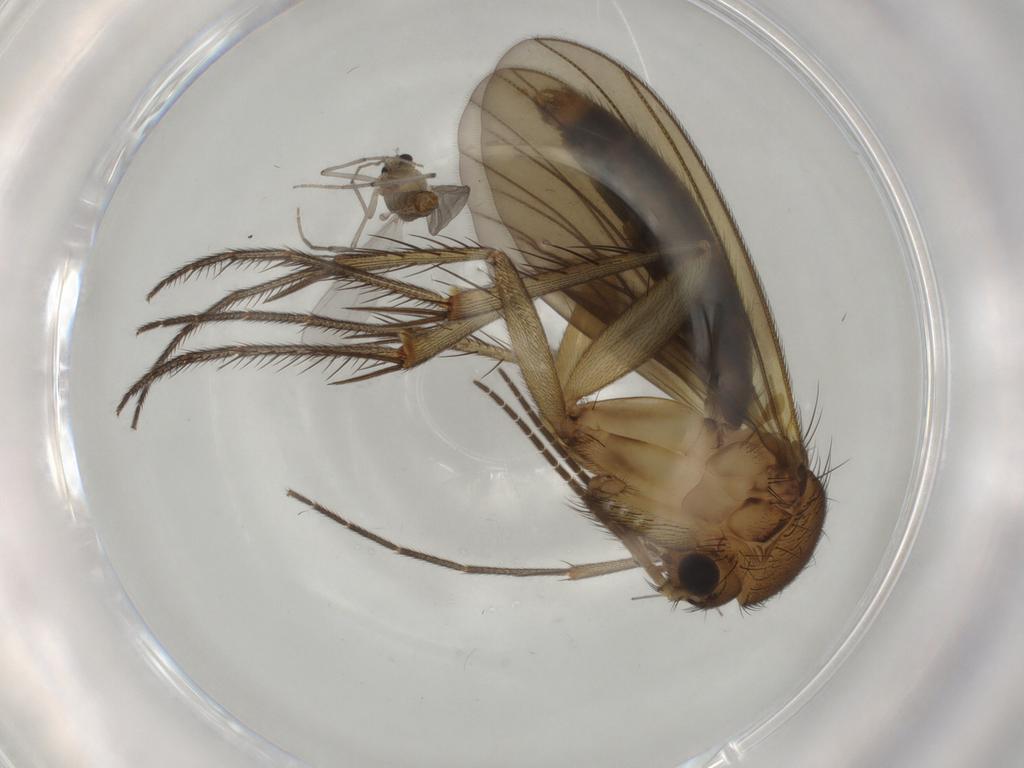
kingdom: Animalia
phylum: Arthropoda
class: Insecta
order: Diptera
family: Chironomidae
